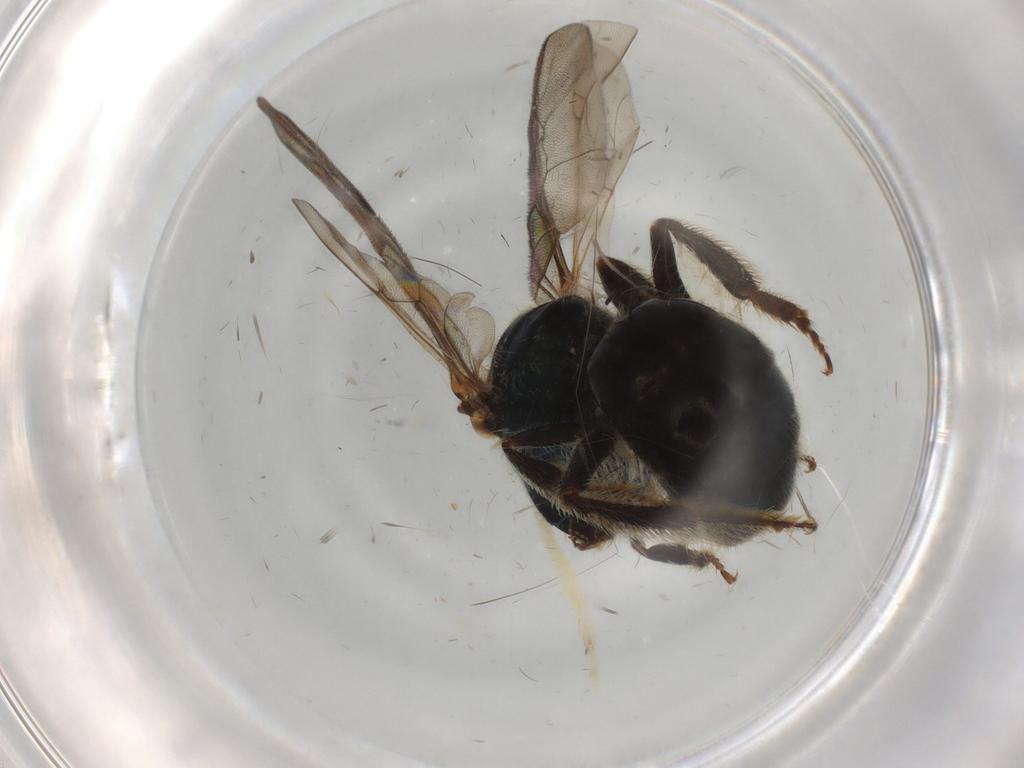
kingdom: Animalia
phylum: Arthropoda
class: Insecta
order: Hymenoptera
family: Halictidae
